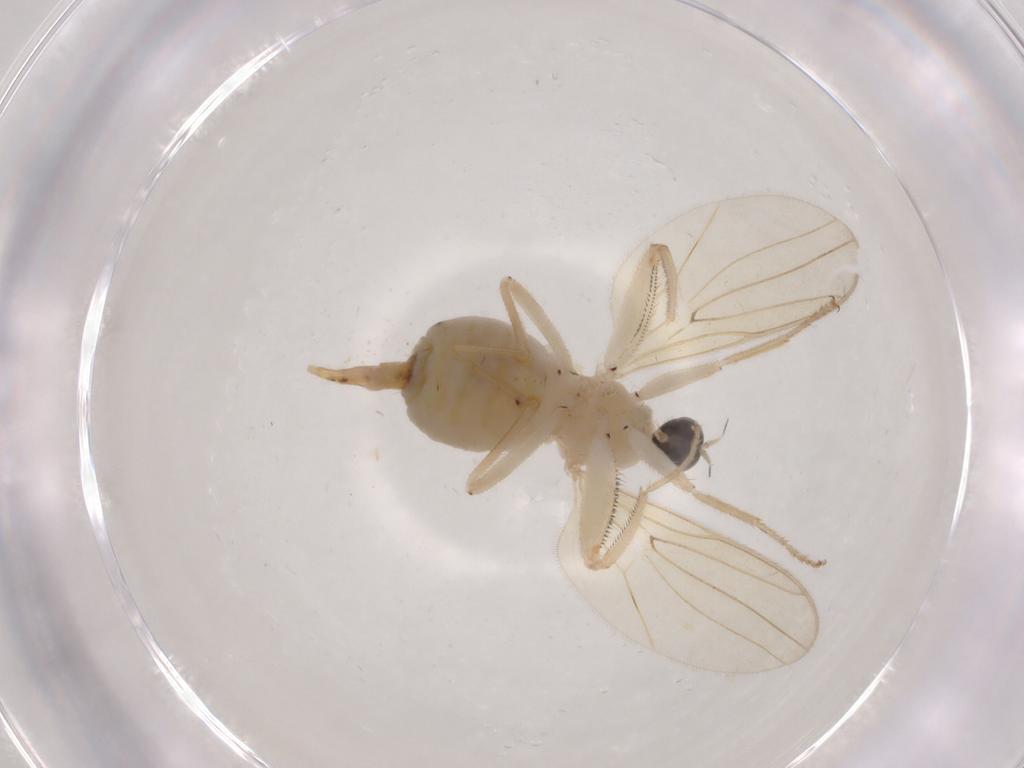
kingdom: Animalia
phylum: Arthropoda
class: Insecta
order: Diptera
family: Hybotidae
